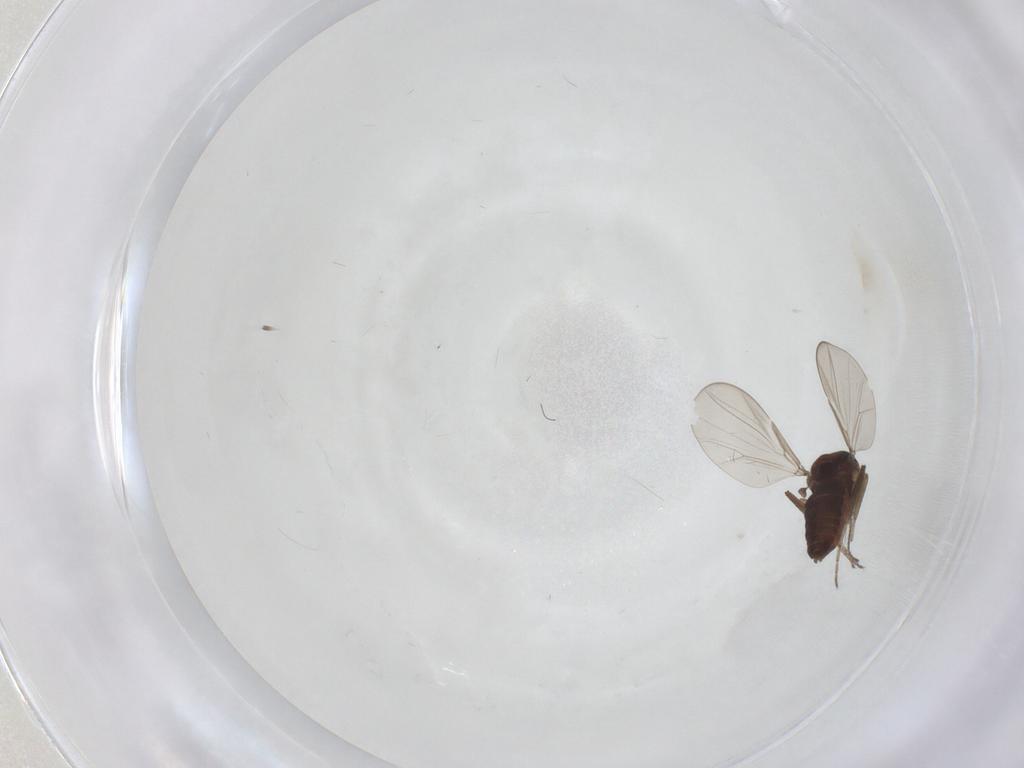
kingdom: Animalia
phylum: Arthropoda
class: Insecta
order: Diptera
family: Ceratopogonidae
